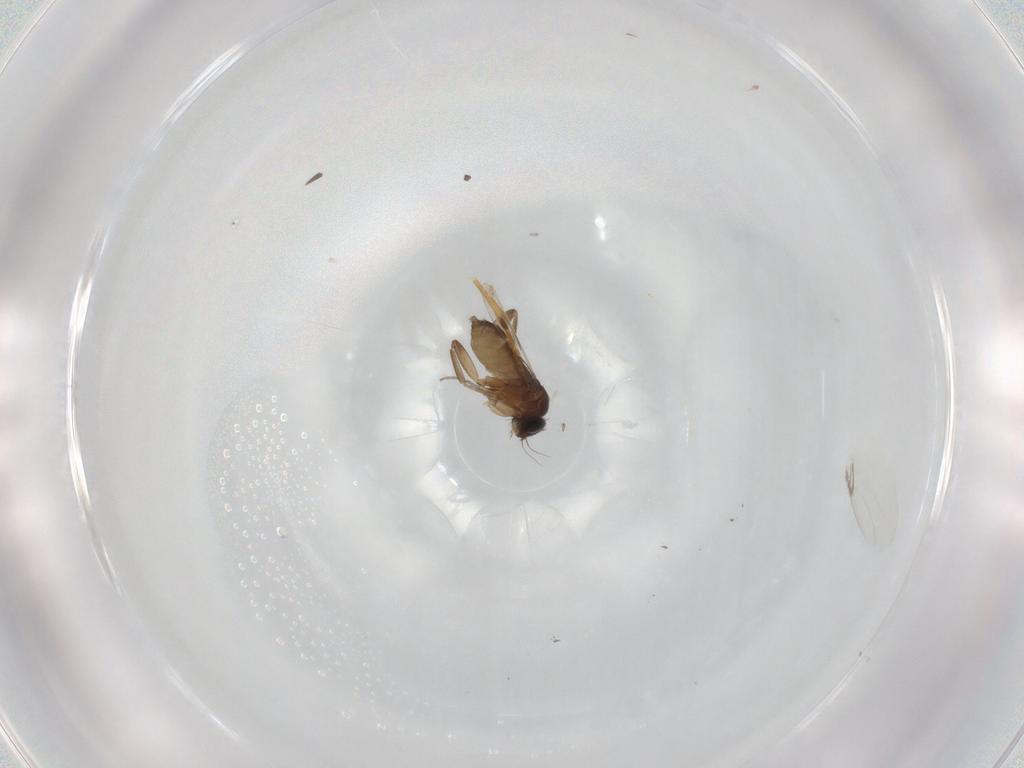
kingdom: Animalia
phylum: Arthropoda
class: Insecta
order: Diptera
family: Phoridae
